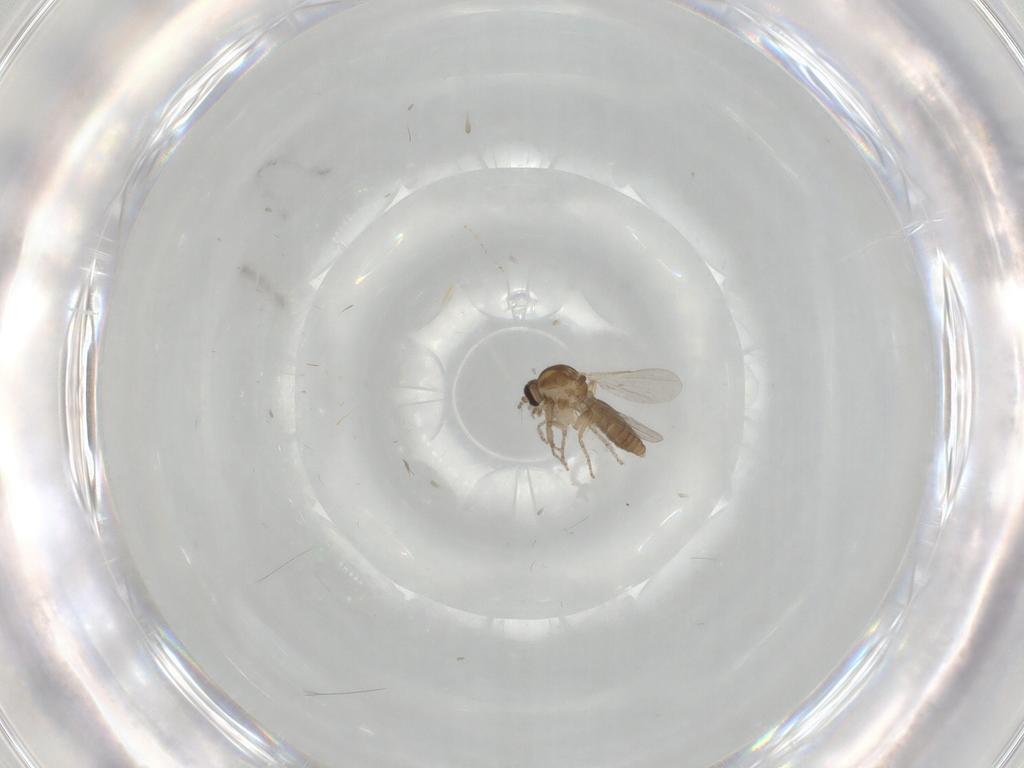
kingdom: Animalia
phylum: Arthropoda
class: Insecta
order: Diptera
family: Ceratopogonidae
